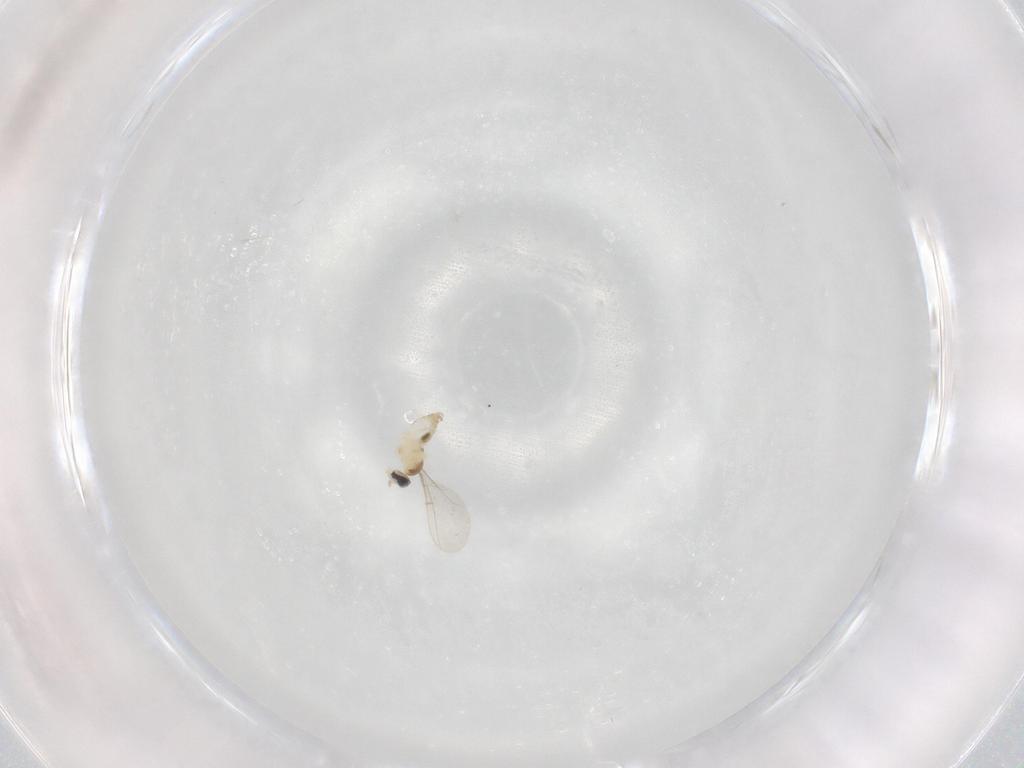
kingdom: Animalia
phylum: Arthropoda
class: Insecta
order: Diptera
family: Cecidomyiidae
